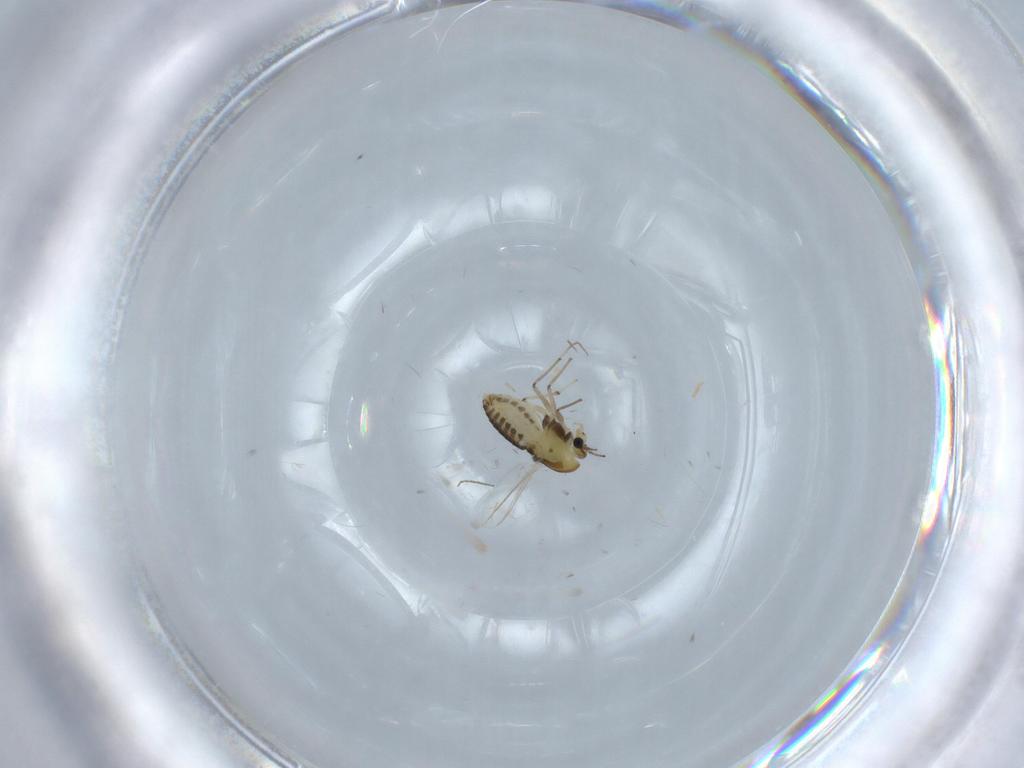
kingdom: Animalia
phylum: Arthropoda
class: Insecta
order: Diptera
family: Chironomidae
